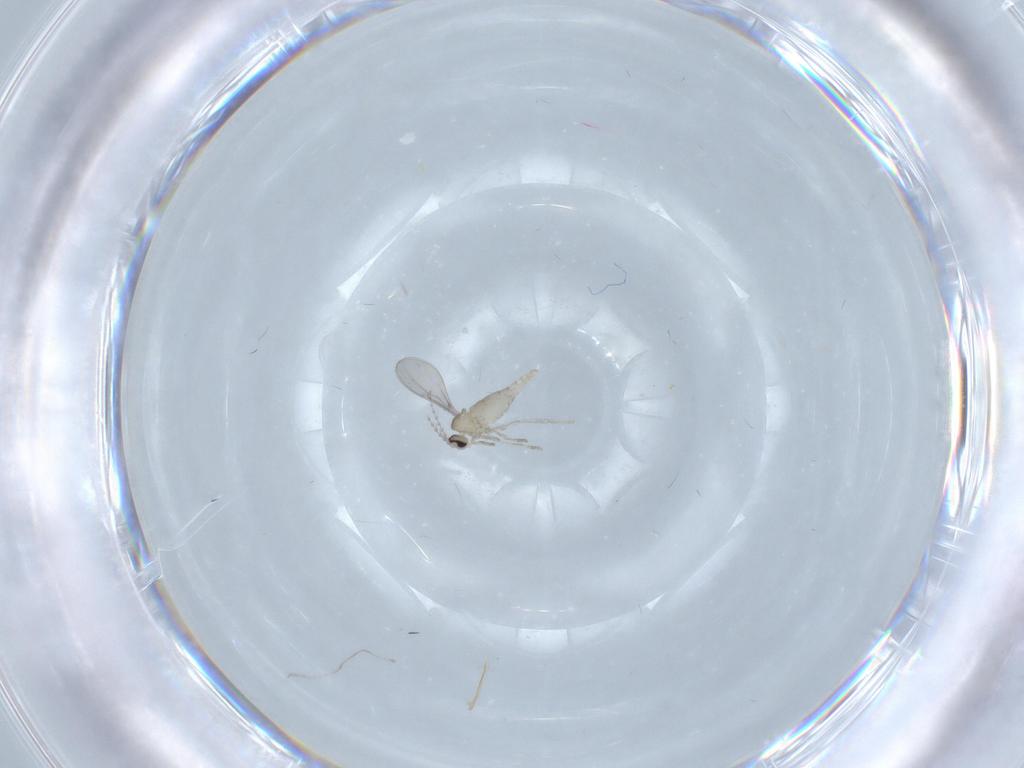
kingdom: Animalia
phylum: Arthropoda
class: Insecta
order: Diptera
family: Cecidomyiidae
